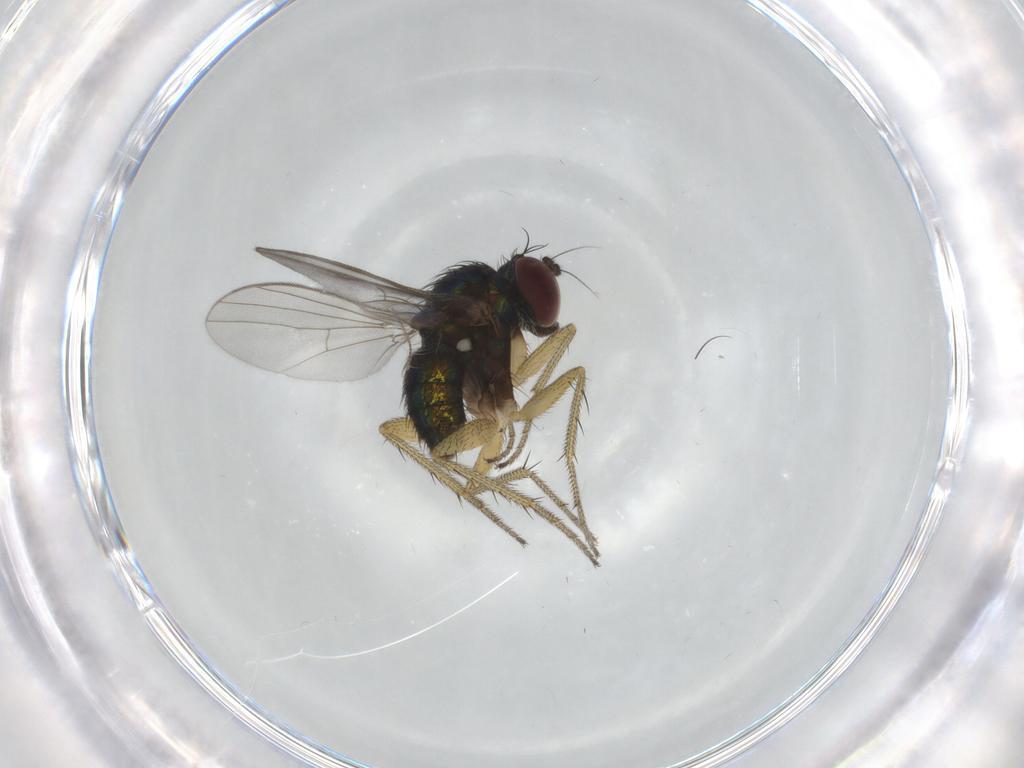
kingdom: Animalia
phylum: Arthropoda
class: Insecta
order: Diptera
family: Dolichopodidae
